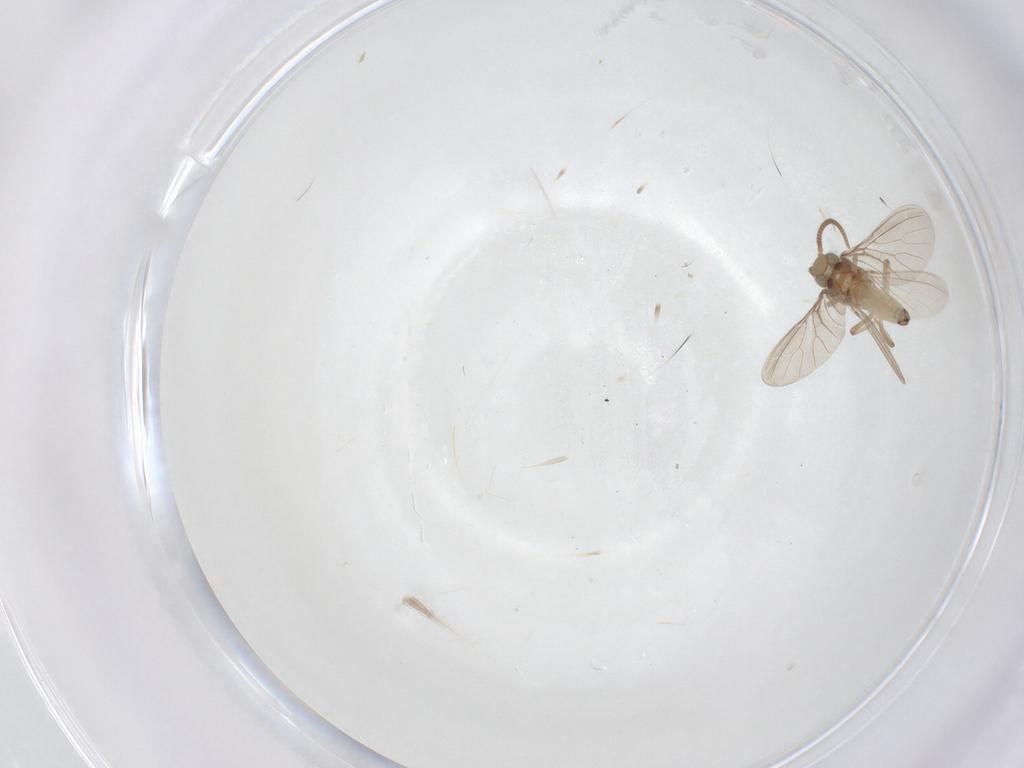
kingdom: Animalia
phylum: Arthropoda
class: Insecta
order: Neuroptera
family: Coniopterygidae
